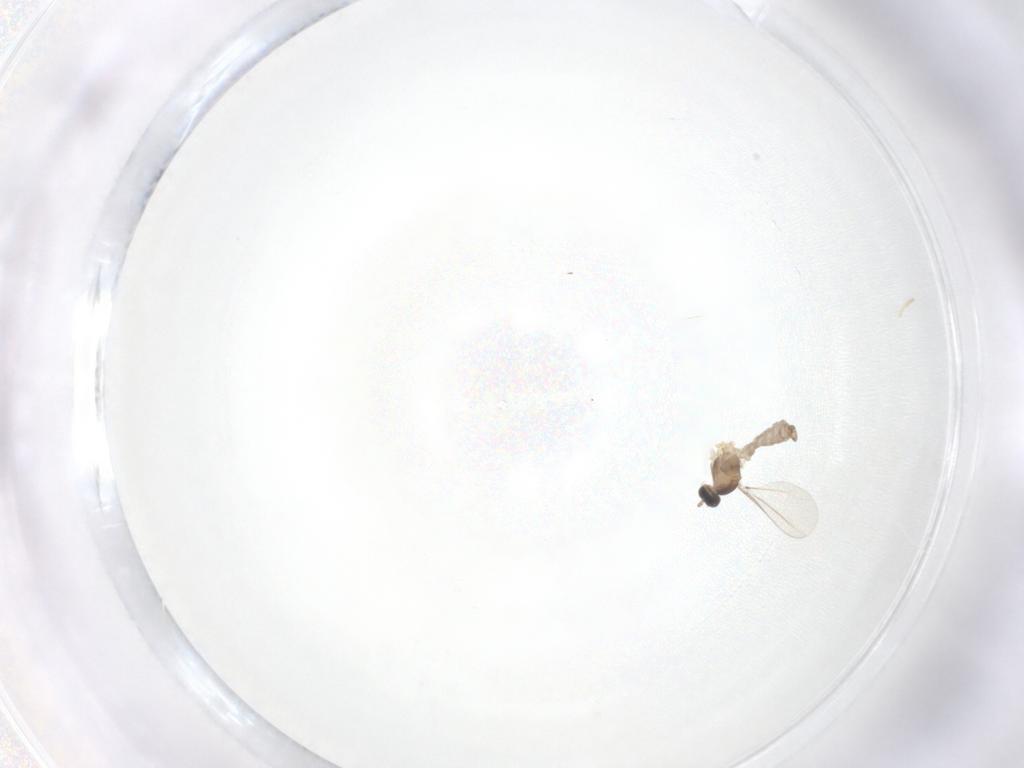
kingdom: Animalia
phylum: Arthropoda
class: Insecta
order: Diptera
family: Cecidomyiidae
